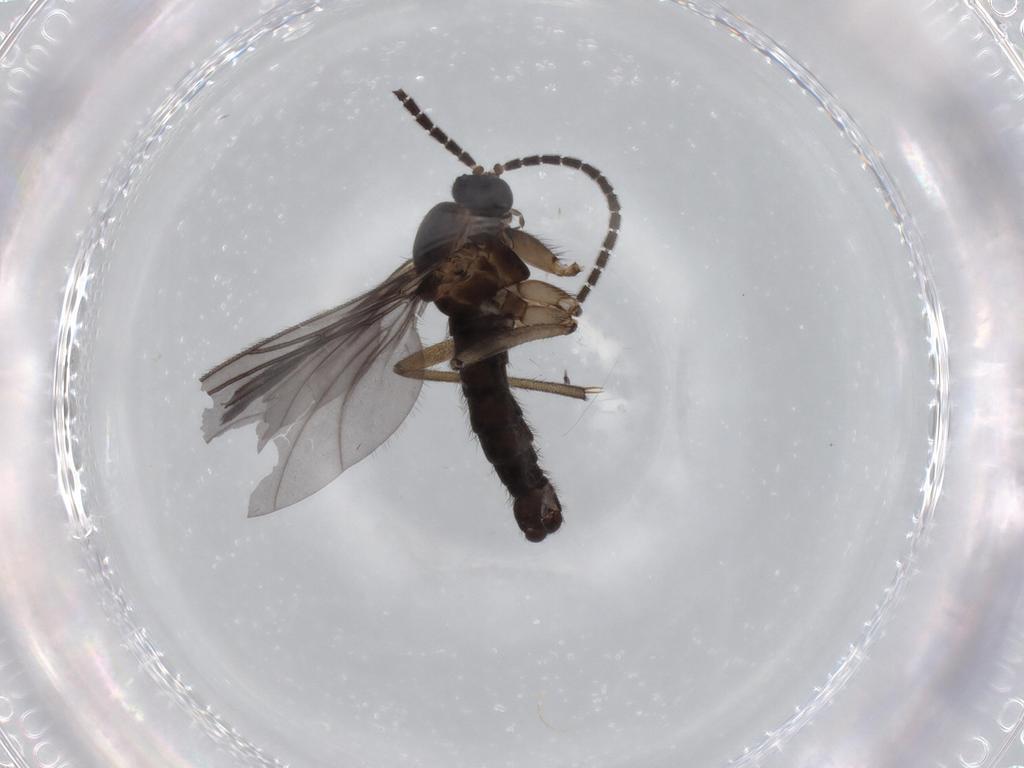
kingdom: Animalia
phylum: Arthropoda
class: Insecta
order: Diptera
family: Sciaridae
